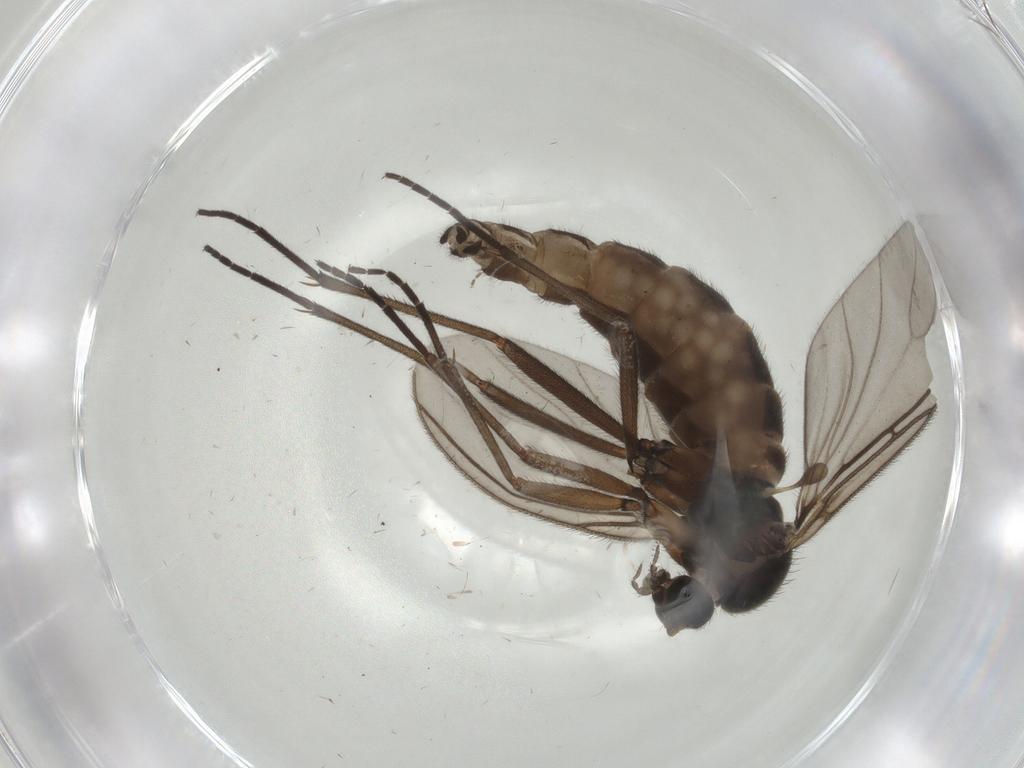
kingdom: Animalia
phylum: Arthropoda
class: Insecta
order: Diptera
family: Sciaridae
